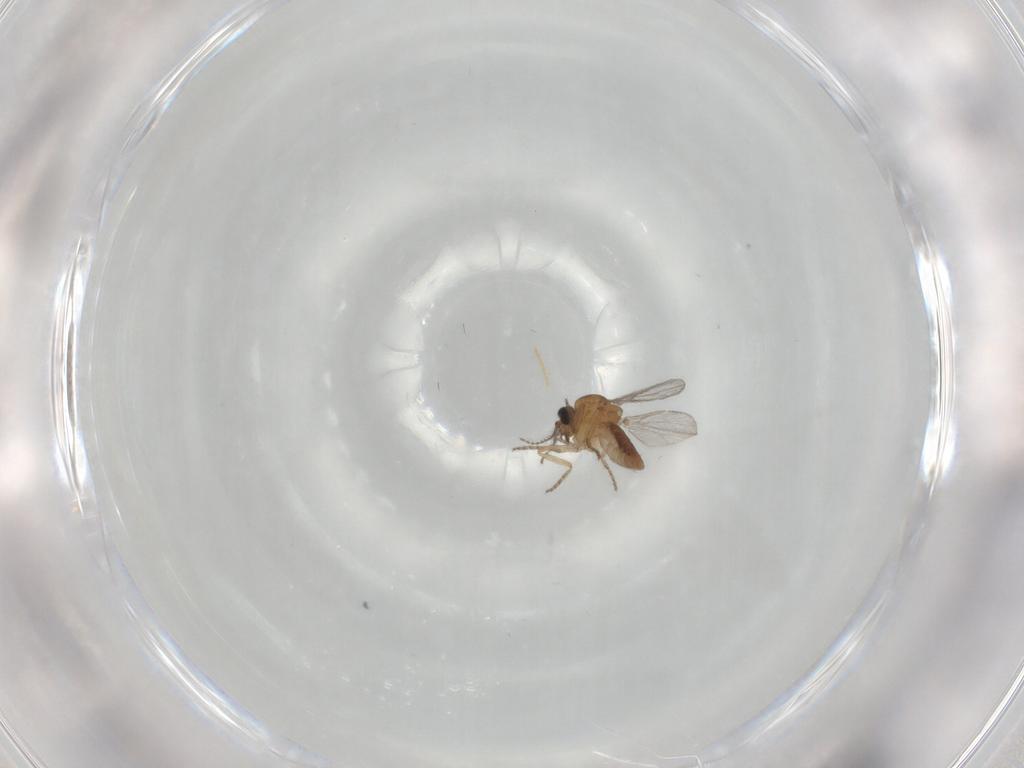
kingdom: Animalia
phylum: Arthropoda
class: Insecta
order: Diptera
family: Ceratopogonidae
